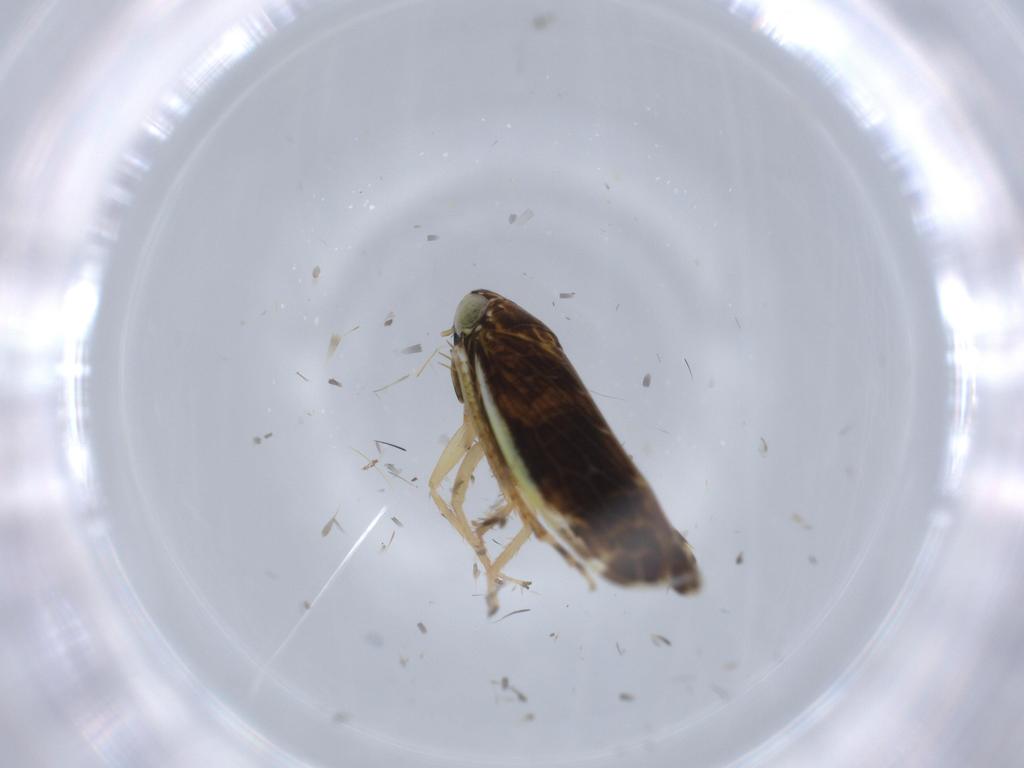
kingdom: Animalia
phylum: Arthropoda
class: Insecta
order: Hemiptera
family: Cicadellidae
